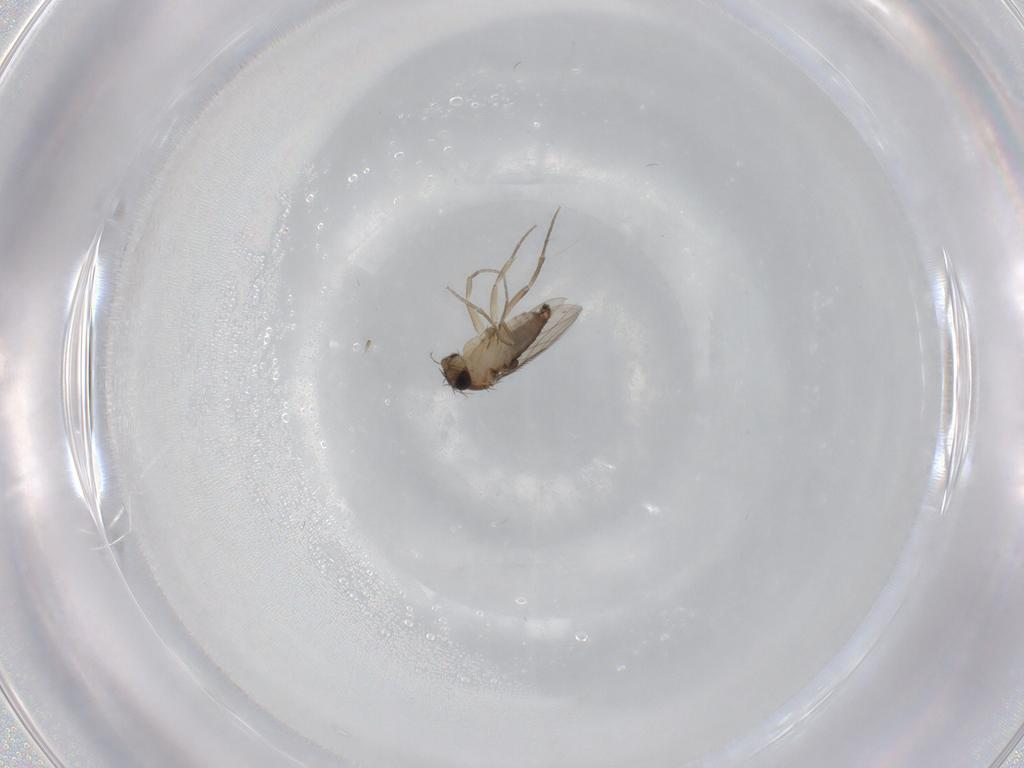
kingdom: Animalia
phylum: Arthropoda
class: Insecta
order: Diptera
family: Phoridae
